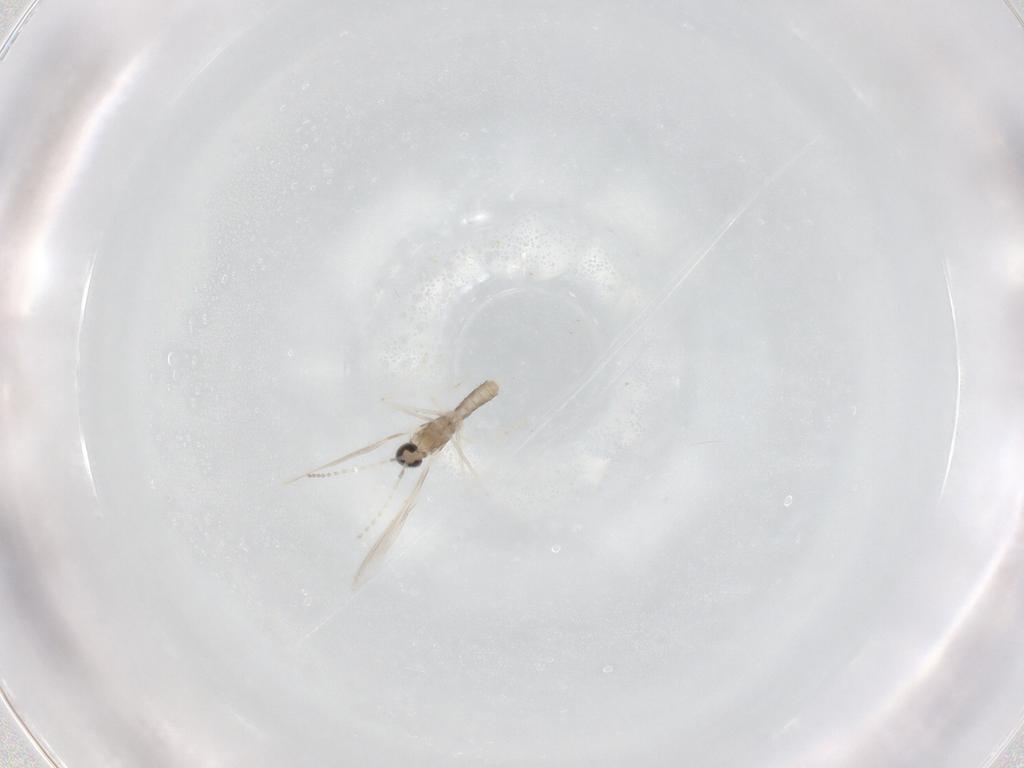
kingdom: Animalia
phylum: Arthropoda
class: Insecta
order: Diptera
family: Cecidomyiidae
